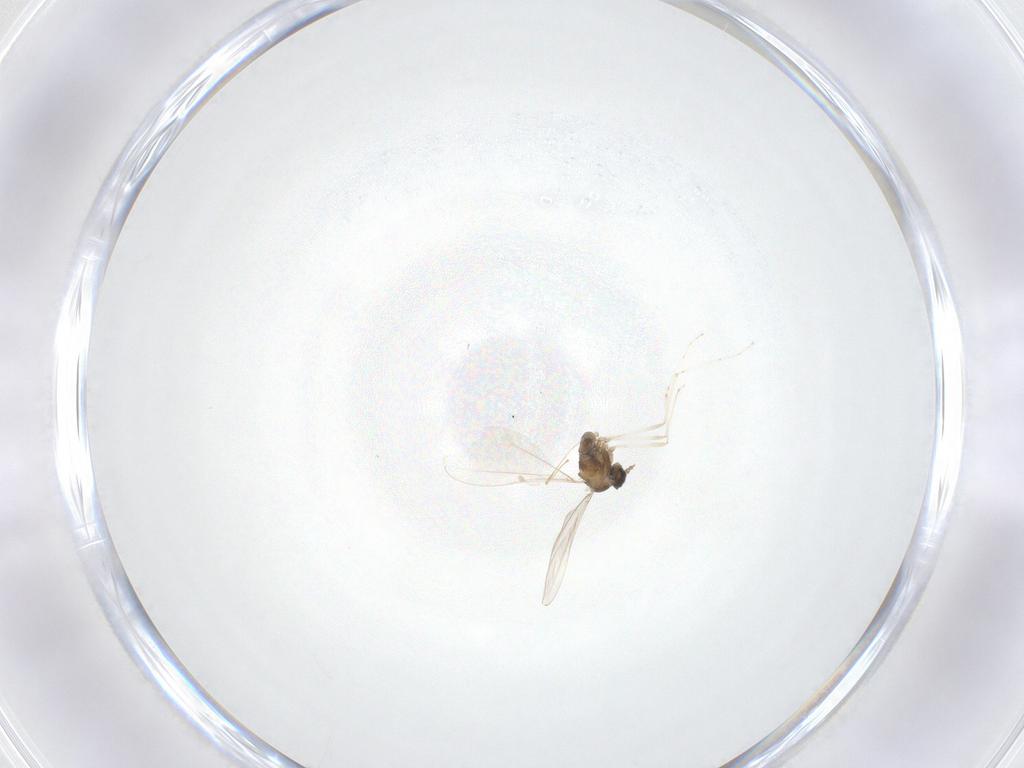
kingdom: Animalia
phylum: Arthropoda
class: Insecta
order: Diptera
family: Cecidomyiidae
